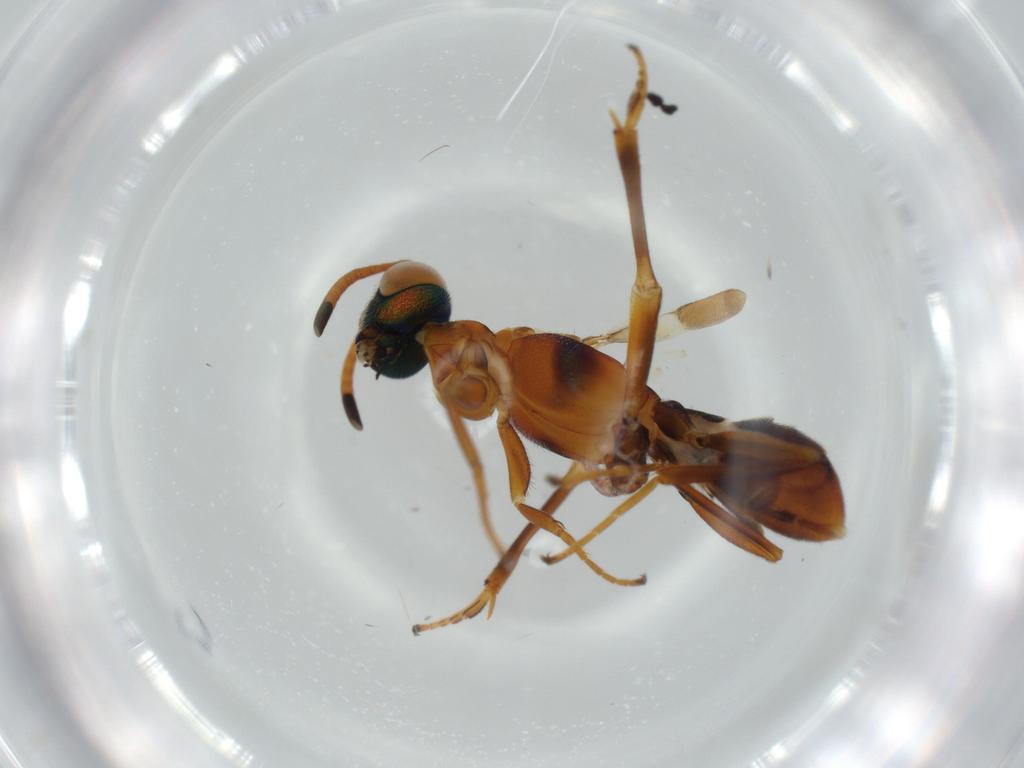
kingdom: Animalia
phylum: Arthropoda
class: Insecta
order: Hymenoptera
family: Eupelmidae
